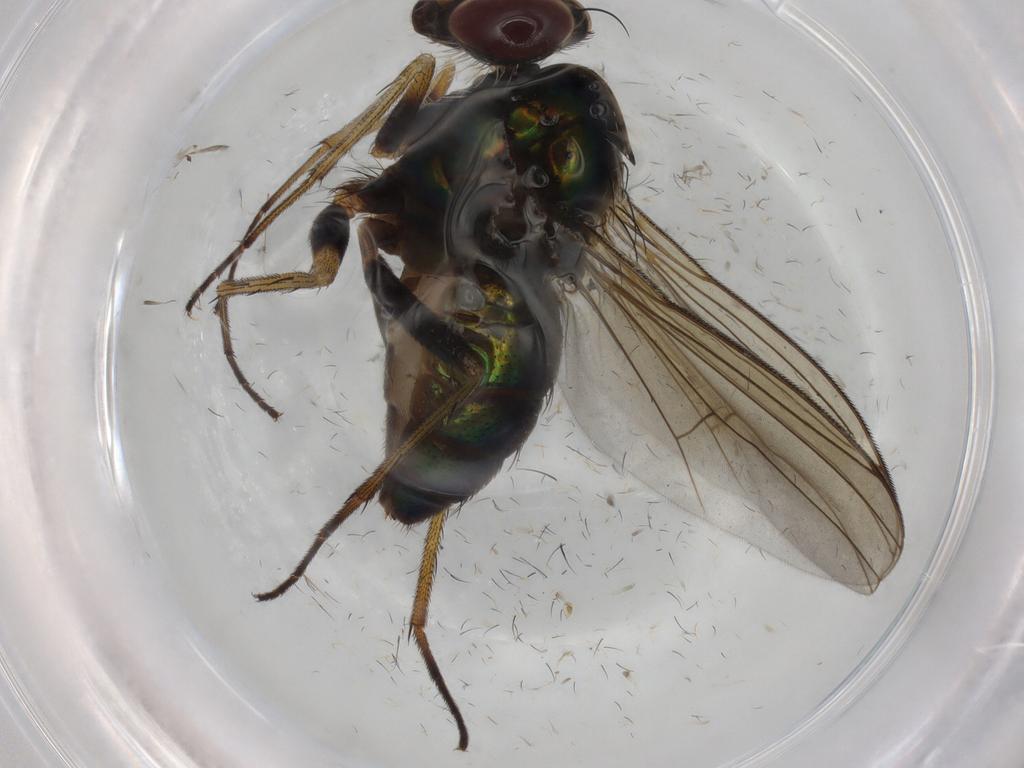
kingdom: Animalia
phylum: Arthropoda
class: Insecta
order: Diptera
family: Dolichopodidae
